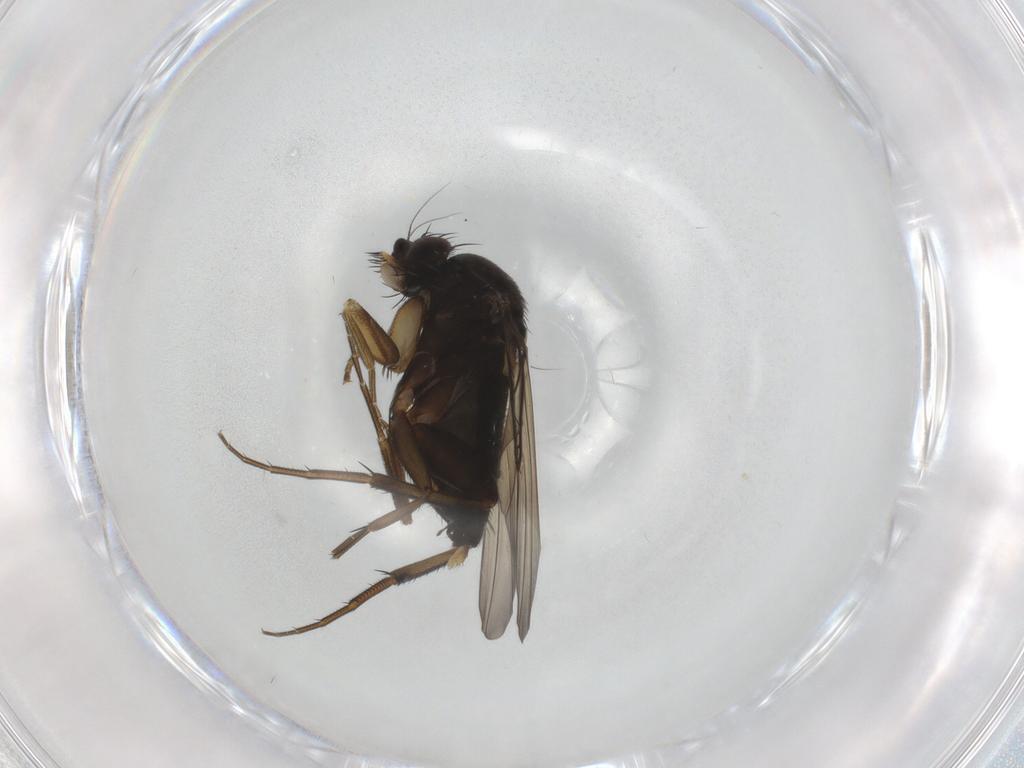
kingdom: Animalia
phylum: Arthropoda
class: Insecta
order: Diptera
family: Phoridae
